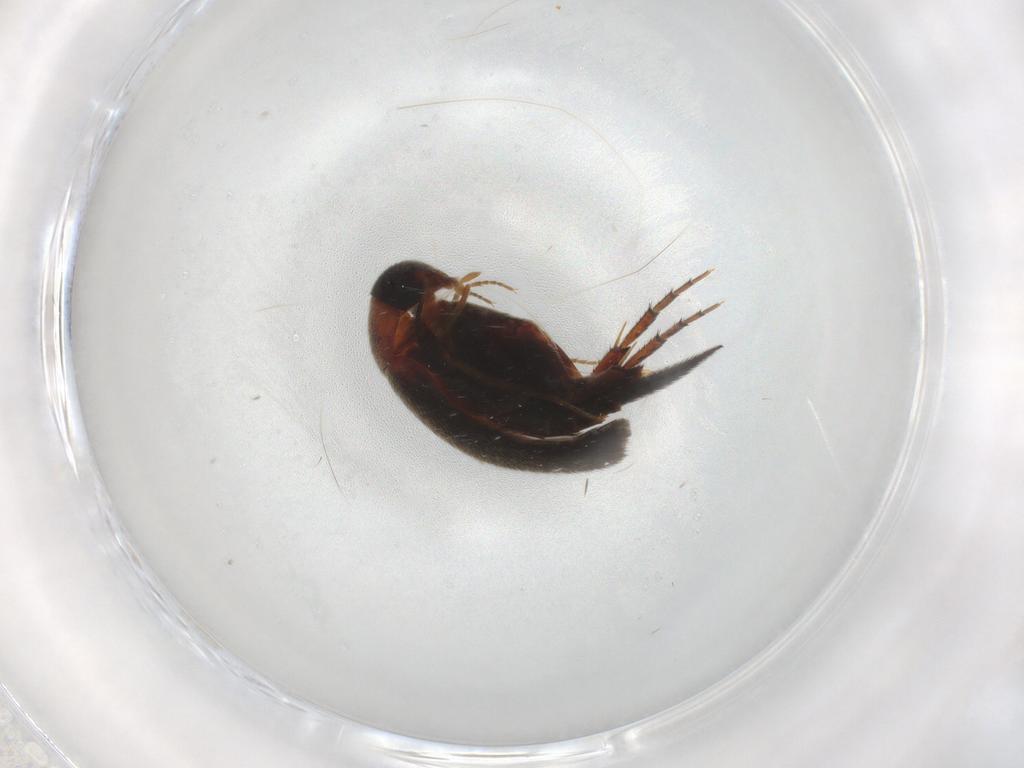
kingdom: Animalia
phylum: Arthropoda
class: Insecta
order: Coleoptera
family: Mordellidae
